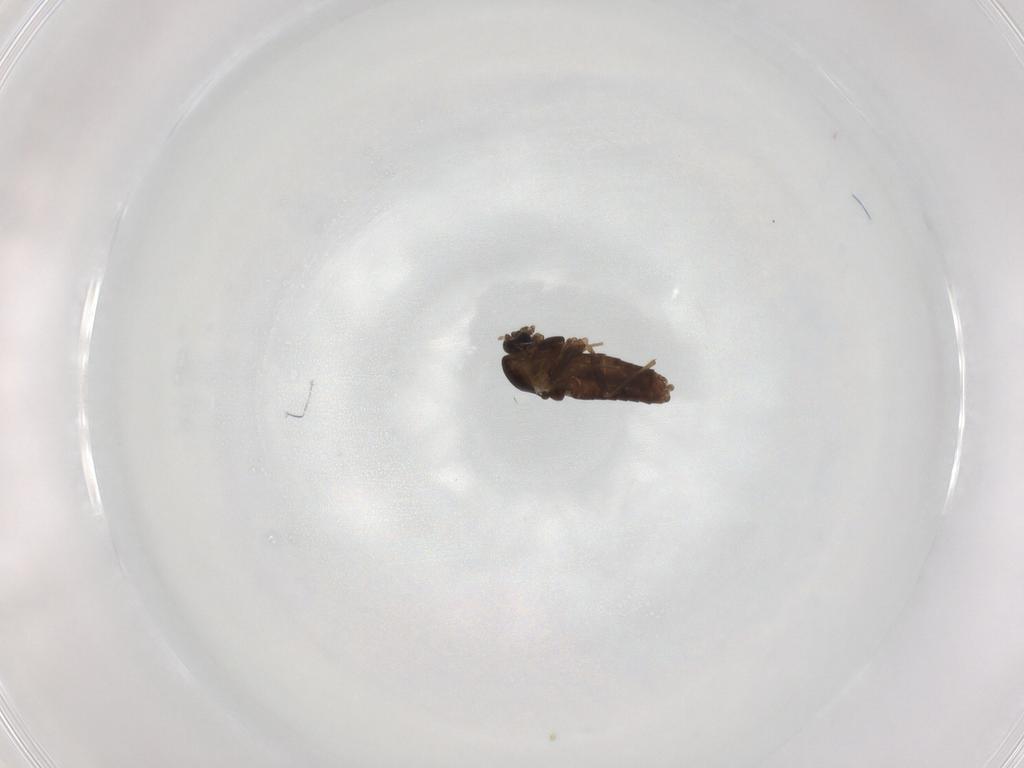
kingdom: Animalia
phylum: Arthropoda
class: Insecta
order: Diptera
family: Chironomidae
